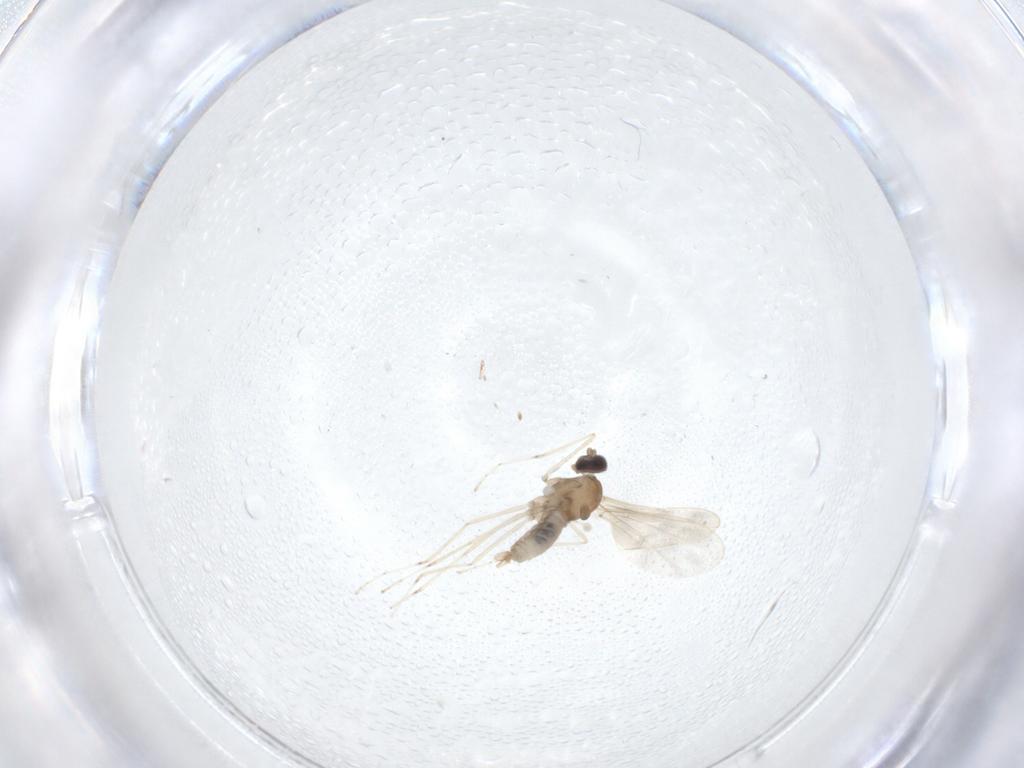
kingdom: Animalia
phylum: Arthropoda
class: Insecta
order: Diptera
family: Cecidomyiidae
